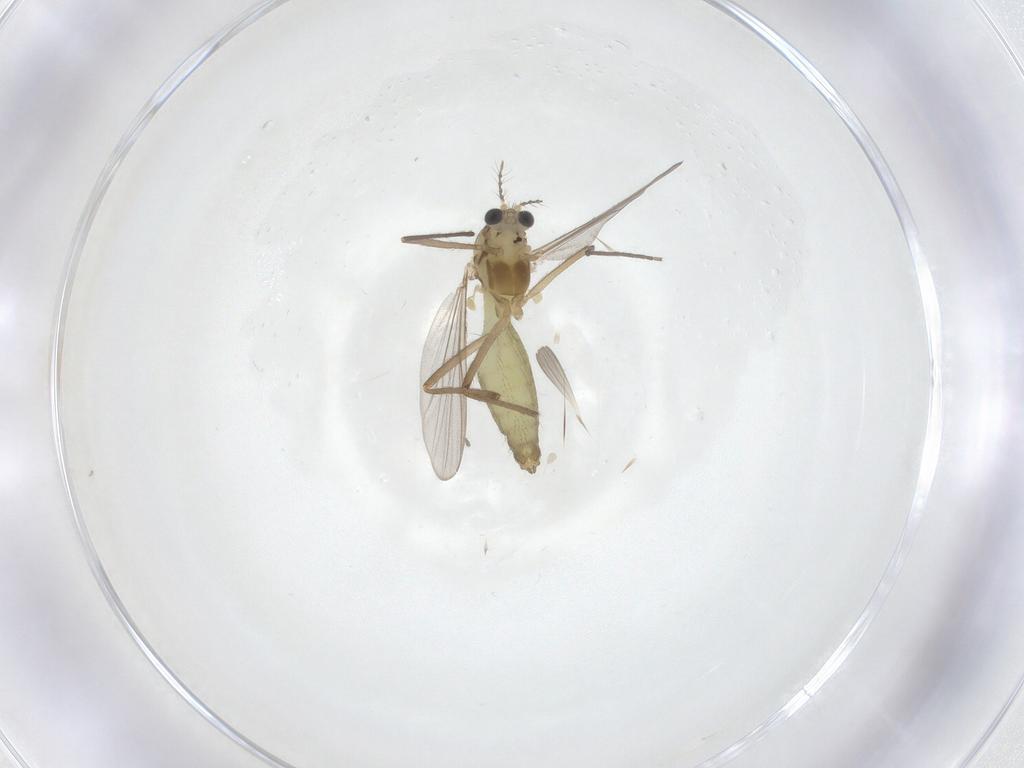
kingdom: Animalia
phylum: Arthropoda
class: Insecta
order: Diptera
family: Chironomidae
